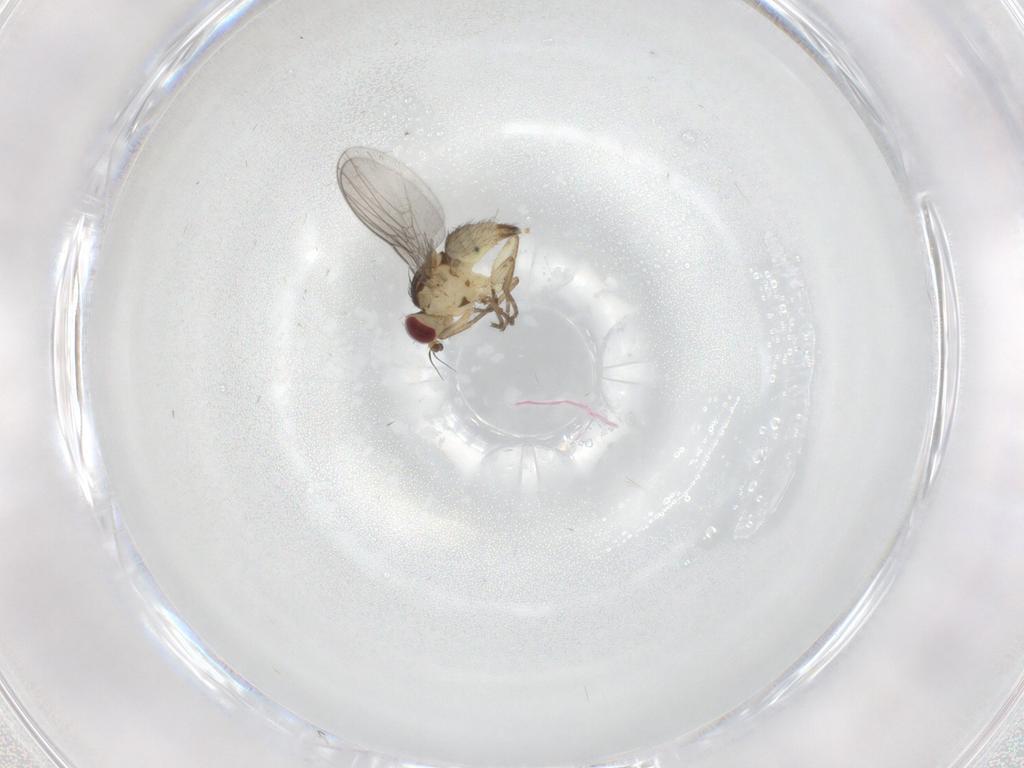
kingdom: Animalia
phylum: Arthropoda
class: Insecta
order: Diptera
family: Agromyzidae
